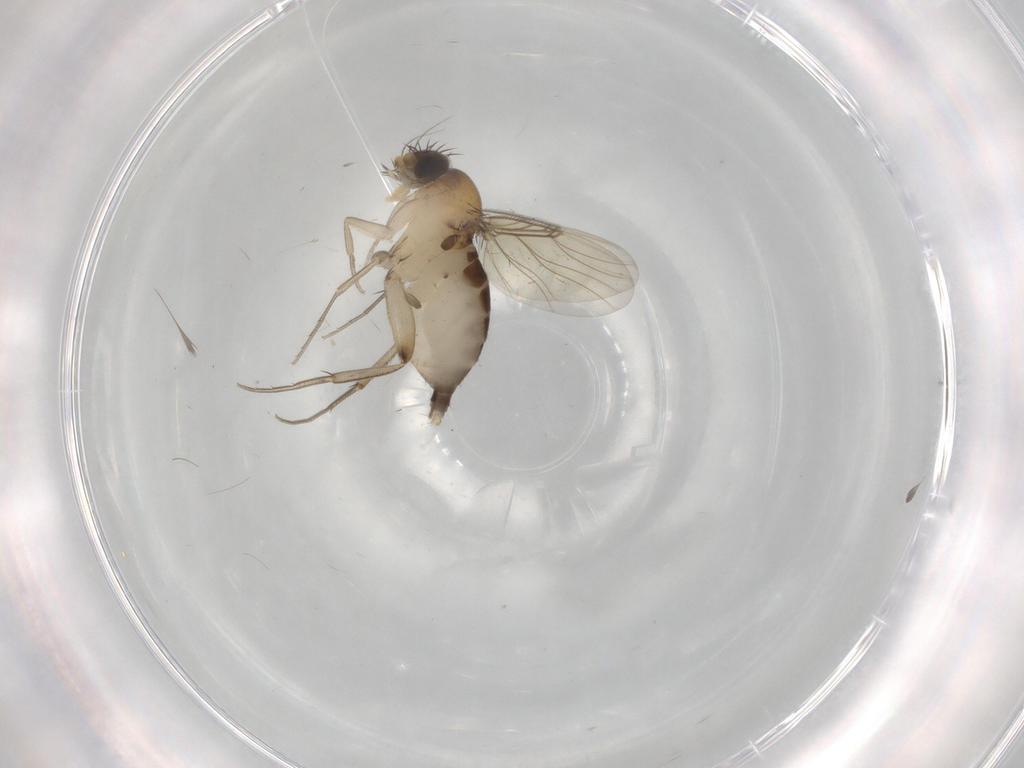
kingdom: Animalia
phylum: Arthropoda
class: Insecta
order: Diptera
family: Phoridae
